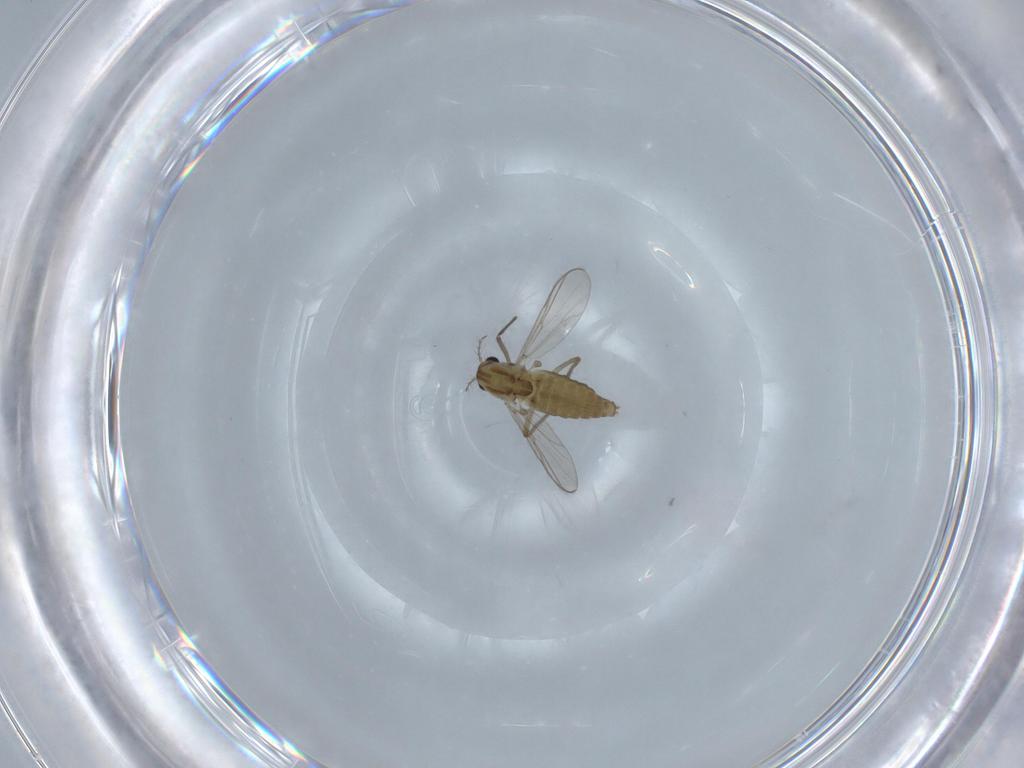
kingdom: Animalia
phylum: Arthropoda
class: Insecta
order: Diptera
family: Chironomidae
